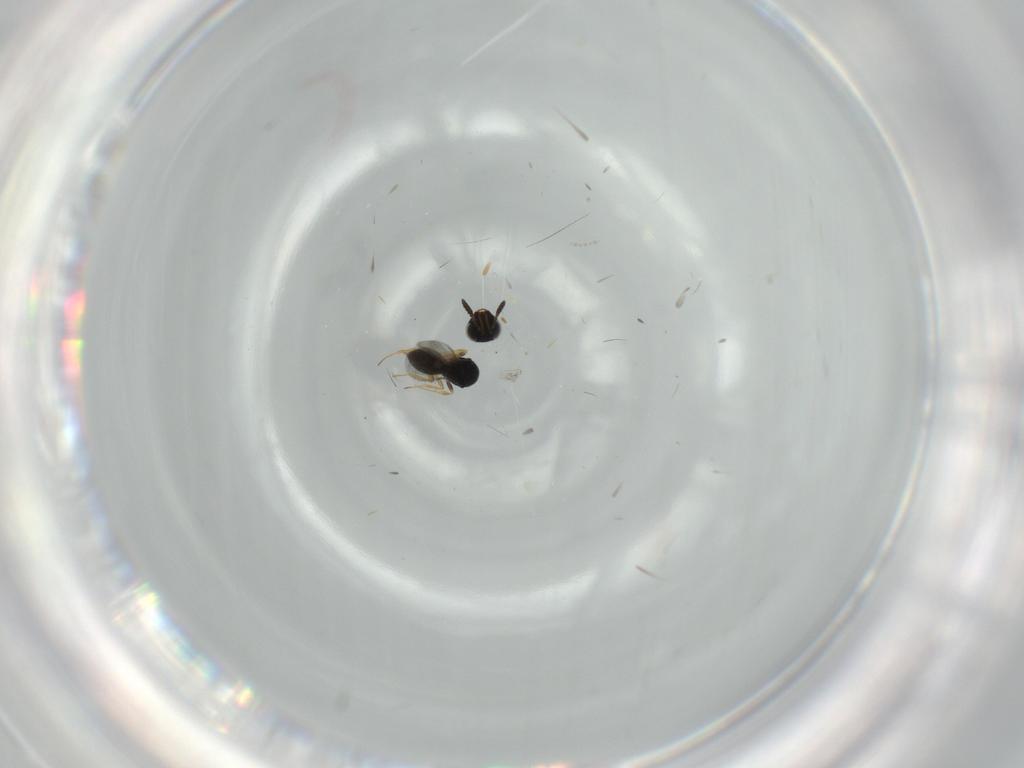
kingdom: Animalia
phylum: Arthropoda
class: Insecta
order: Hymenoptera
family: Scelionidae
